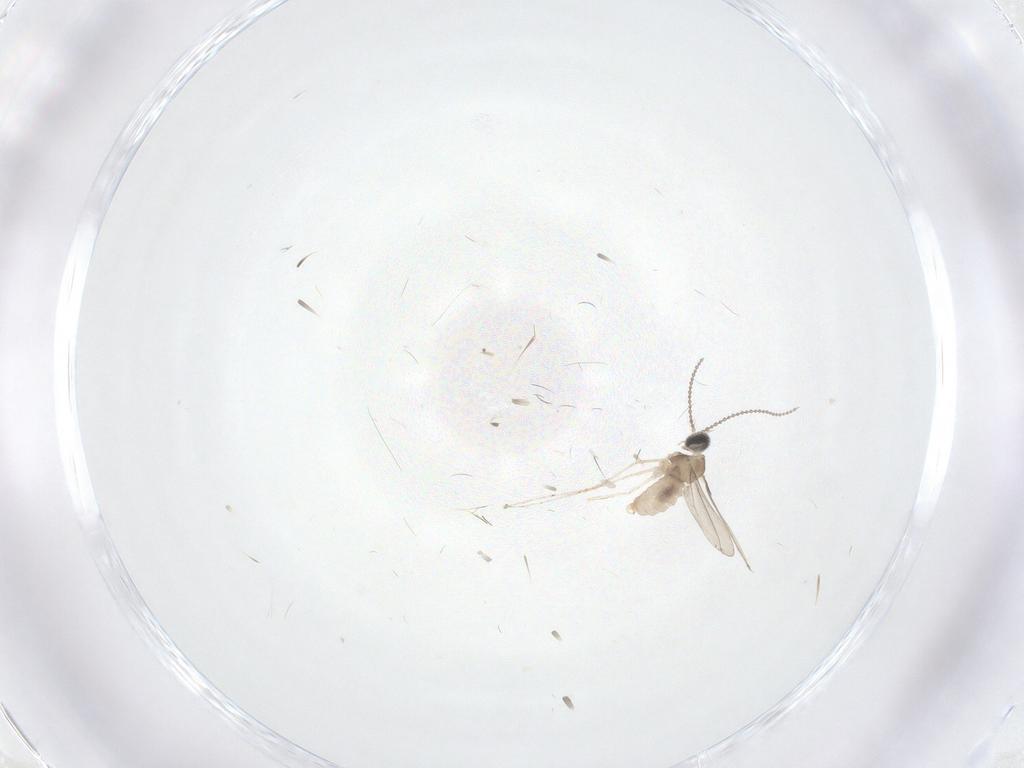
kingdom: Animalia
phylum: Arthropoda
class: Insecta
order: Diptera
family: Cecidomyiidae
